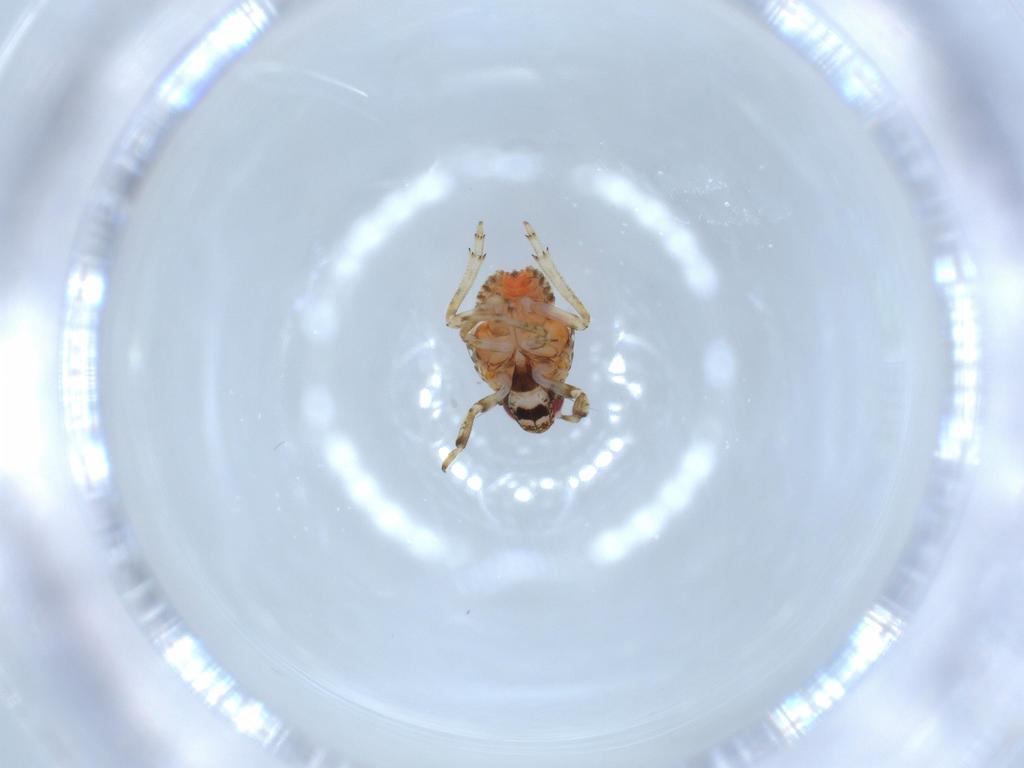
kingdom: Animalia
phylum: Arthropoda
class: Insecta
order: Hemiptera
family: Issidae
